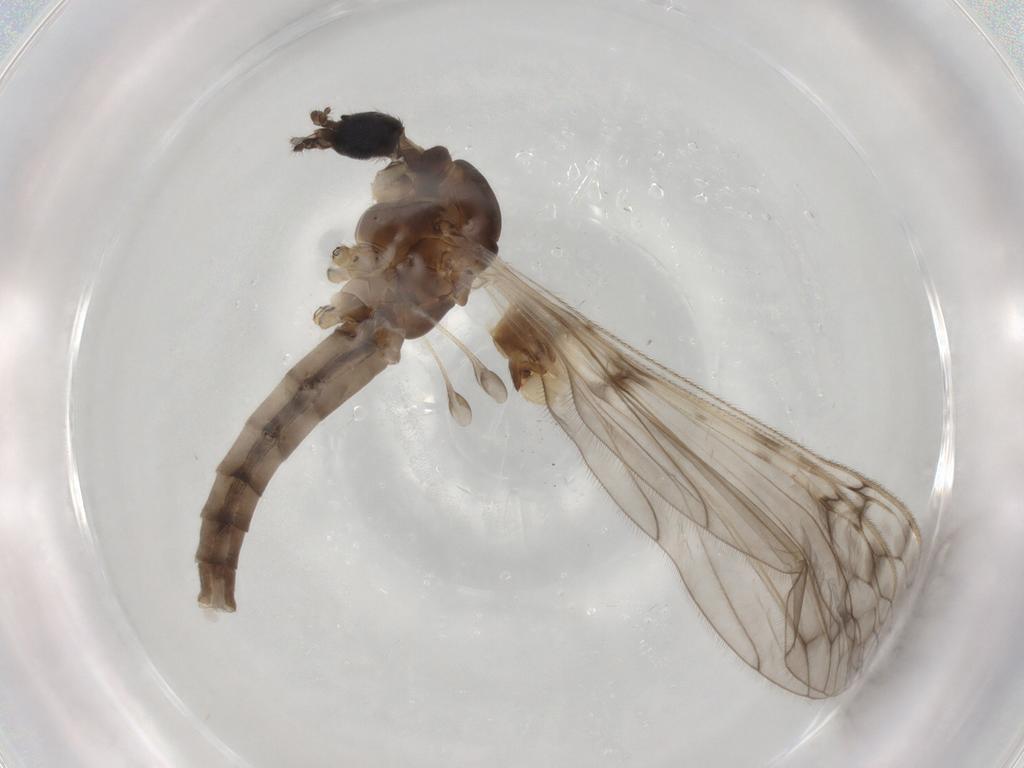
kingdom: Animalia
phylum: Arthropoda
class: Insecta
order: Diptera
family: Limoniidae
